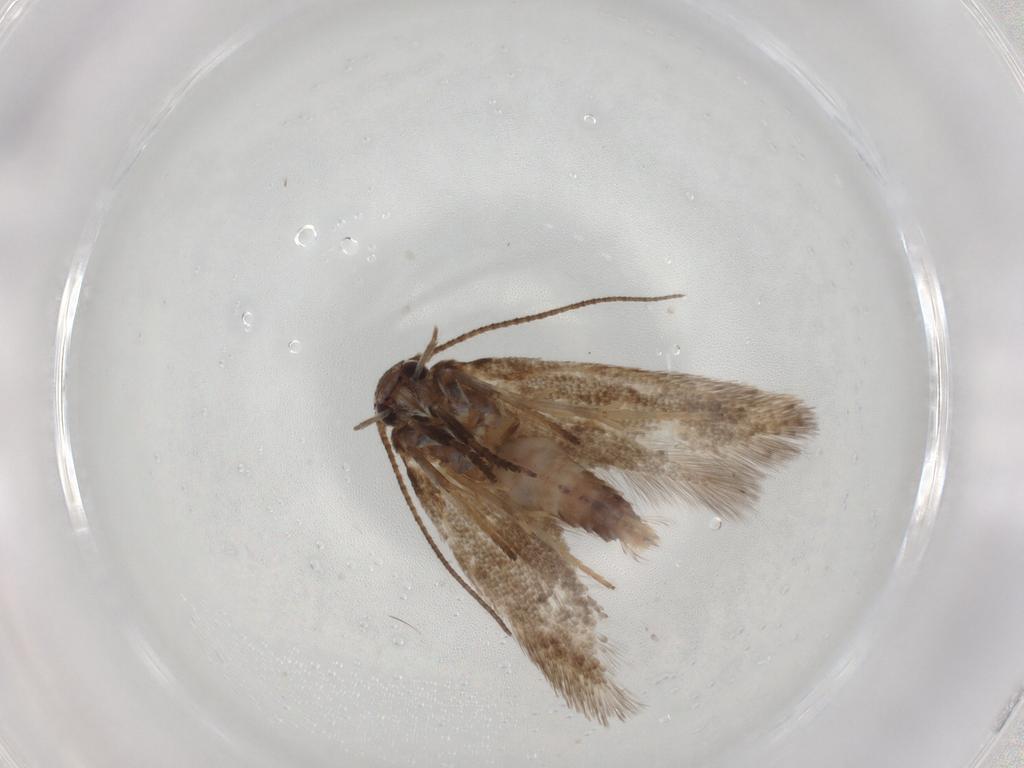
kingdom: Animalia
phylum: Arthropoda
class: Insecta
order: Lepidoptera
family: Oecophoridae
